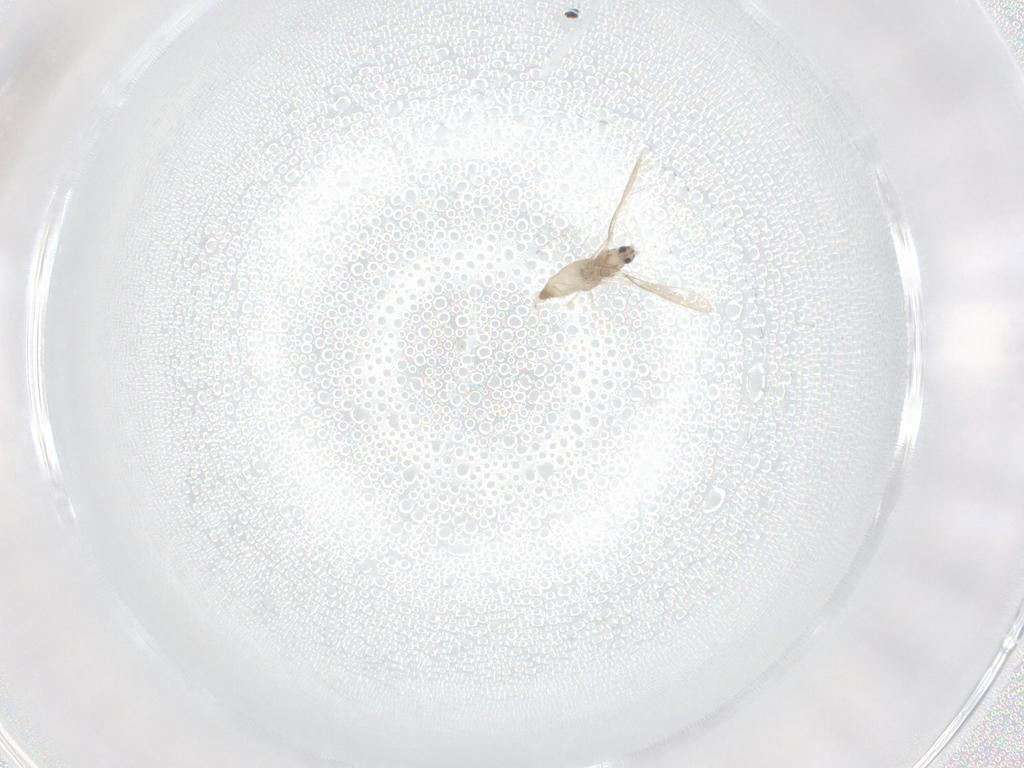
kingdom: Animalia
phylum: Arthropoda
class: Insecta
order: Diptera
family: Cecidomyiidae
